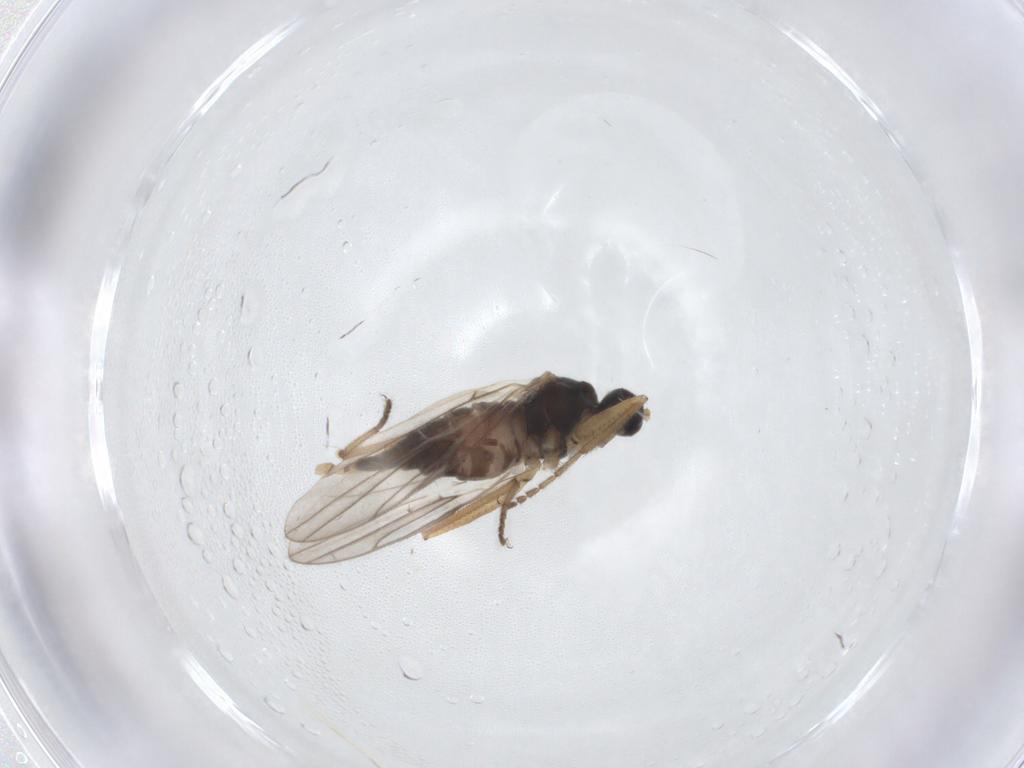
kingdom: Animalia
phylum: Arthropoda
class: Insecta
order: Diptera
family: Hybotidae
